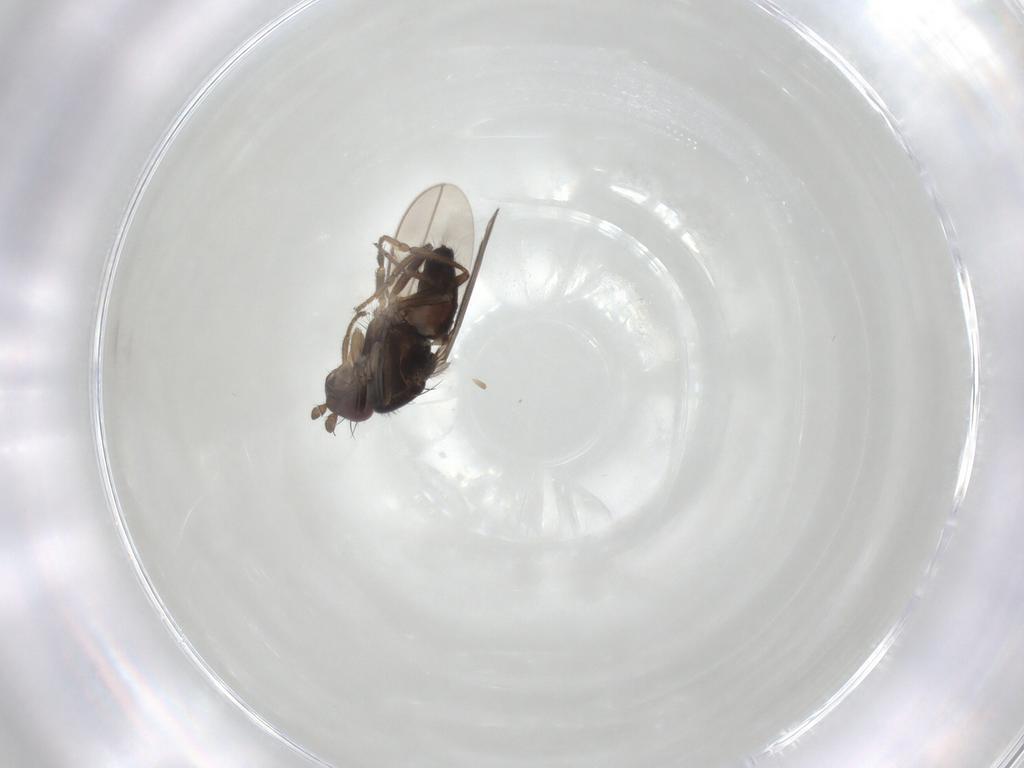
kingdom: Animalia
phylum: Arthropoda
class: Insecta
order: Diptera
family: Sphaeroceridae
